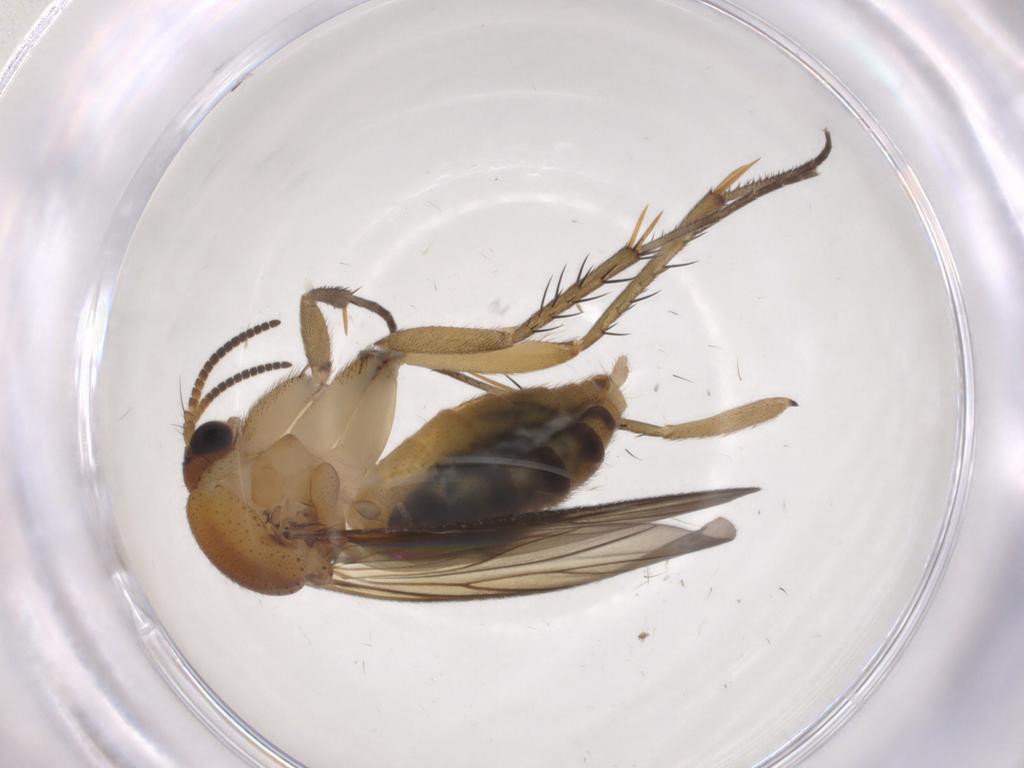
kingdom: Animalia
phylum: Arthropoda
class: Insecta
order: Diptera
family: Mycetophilidae
